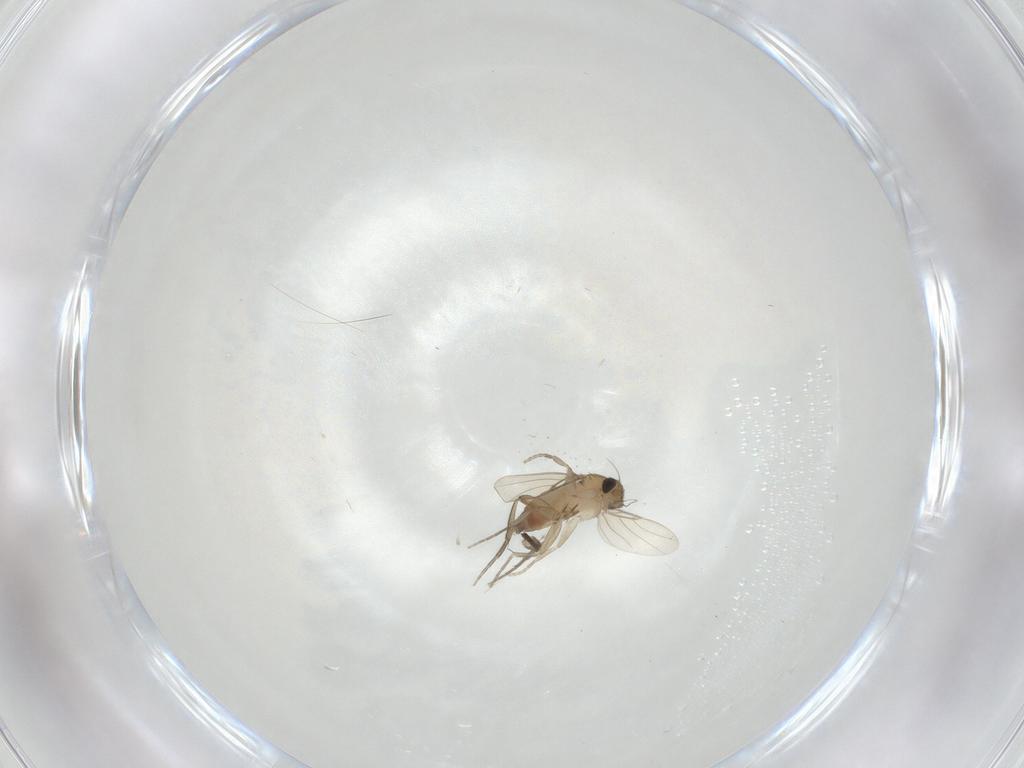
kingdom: Animalia
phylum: Arthropoda
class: Insecta
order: Diptera
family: Phoridae
